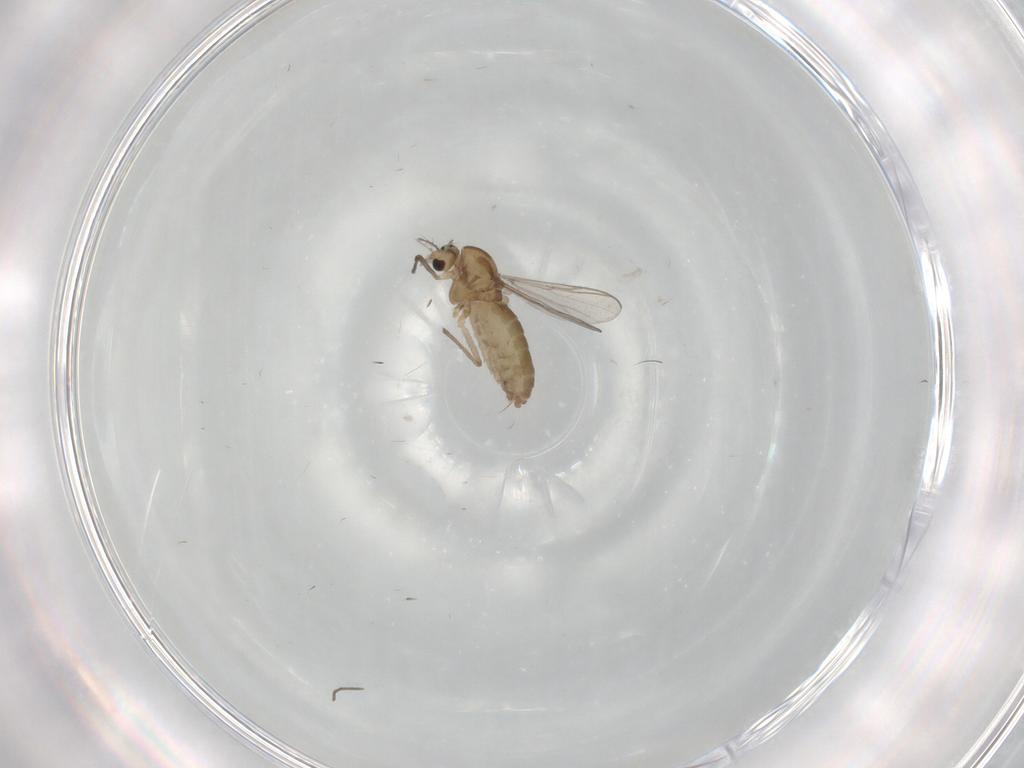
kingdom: Animalia
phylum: Arthropoda
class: Insecta
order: Diptera
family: Chironomidae
